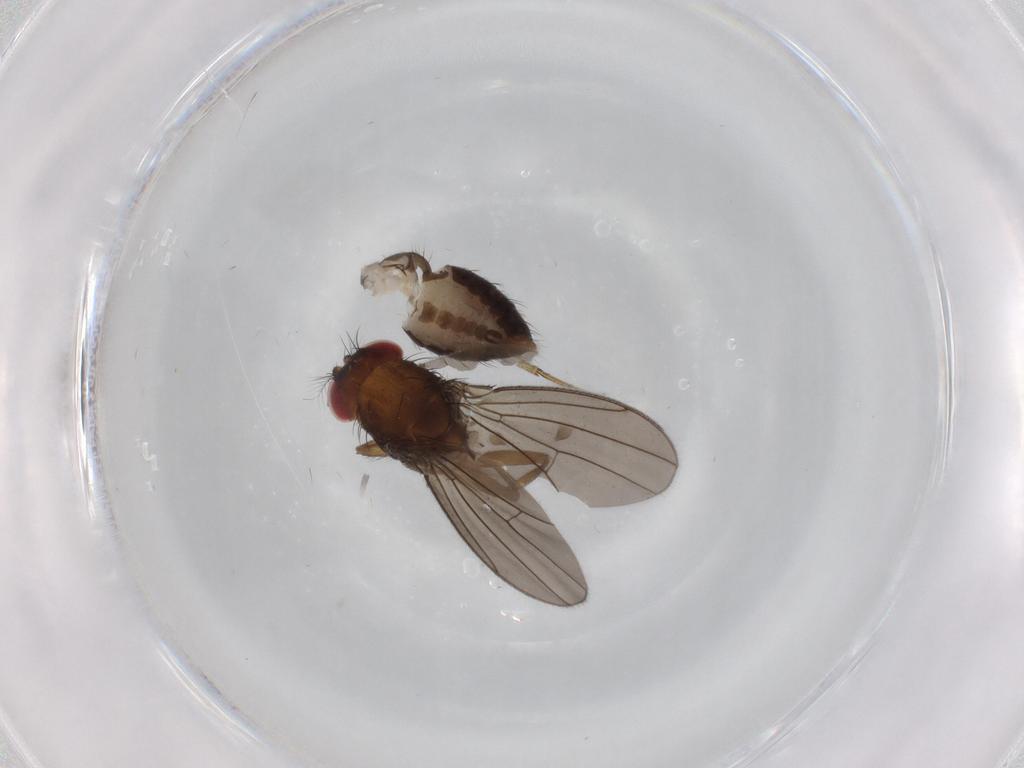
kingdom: Animalia
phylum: Arthropoda
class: Insecta
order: Diptera
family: Drosophilidae
